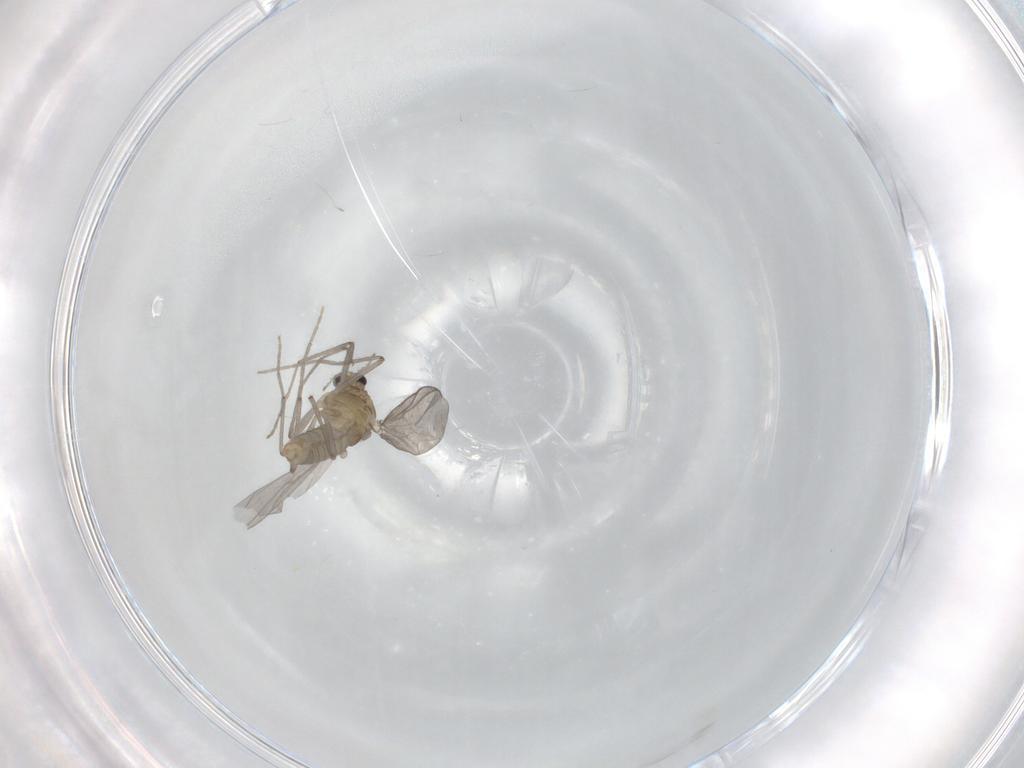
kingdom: Animalia
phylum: Arthropoda
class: Insecta
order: Diptera
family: Chironomidae
